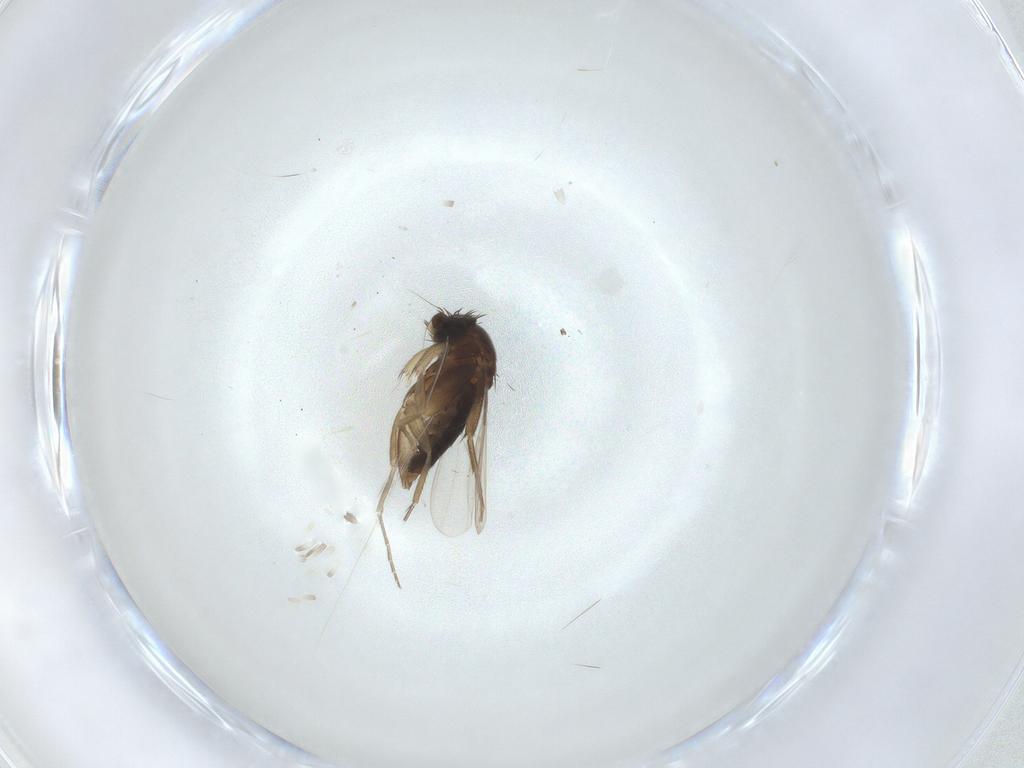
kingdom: Animalia
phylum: Arthropoda
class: Insecta
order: Diptera
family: Phoridae
